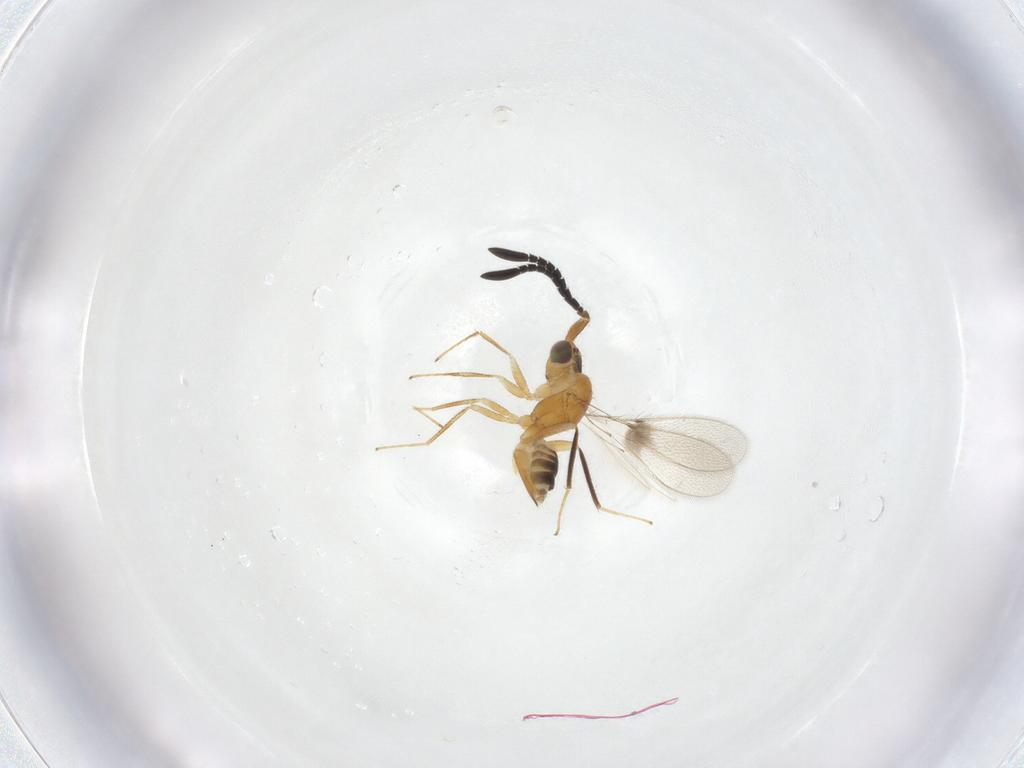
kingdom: Animalia
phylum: Arthropoda
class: Insecta
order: Hymenoptera
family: Mymaridae
